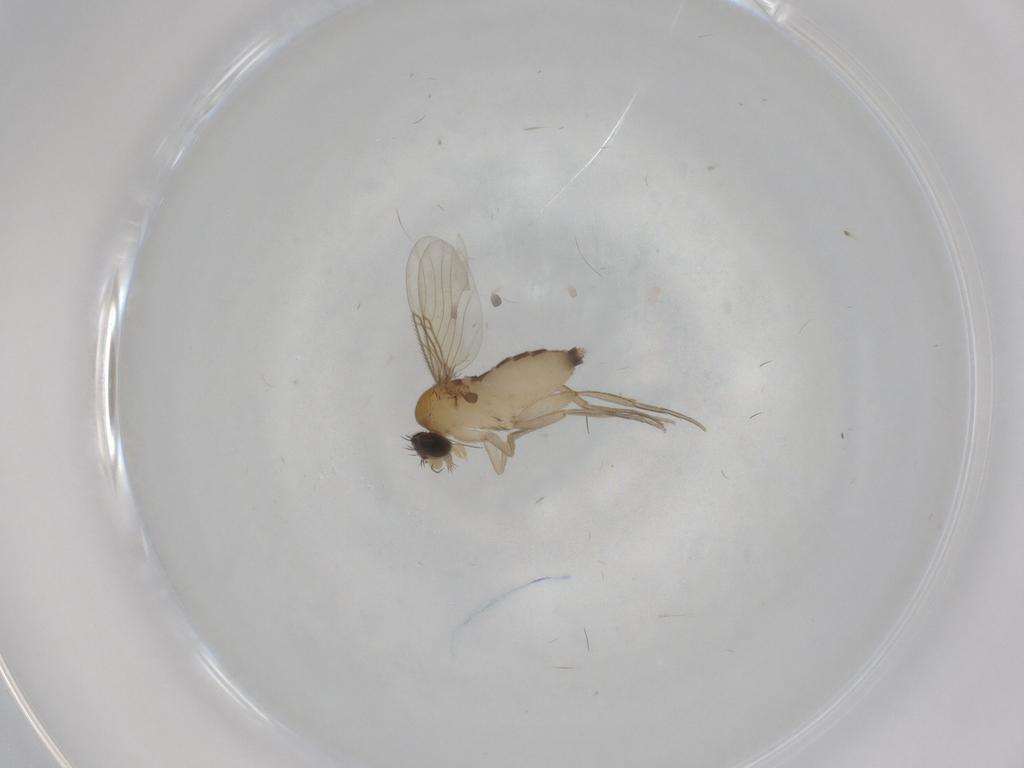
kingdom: Animalia
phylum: Arthropoda
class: Insecta
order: Diptera
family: Phoridae
